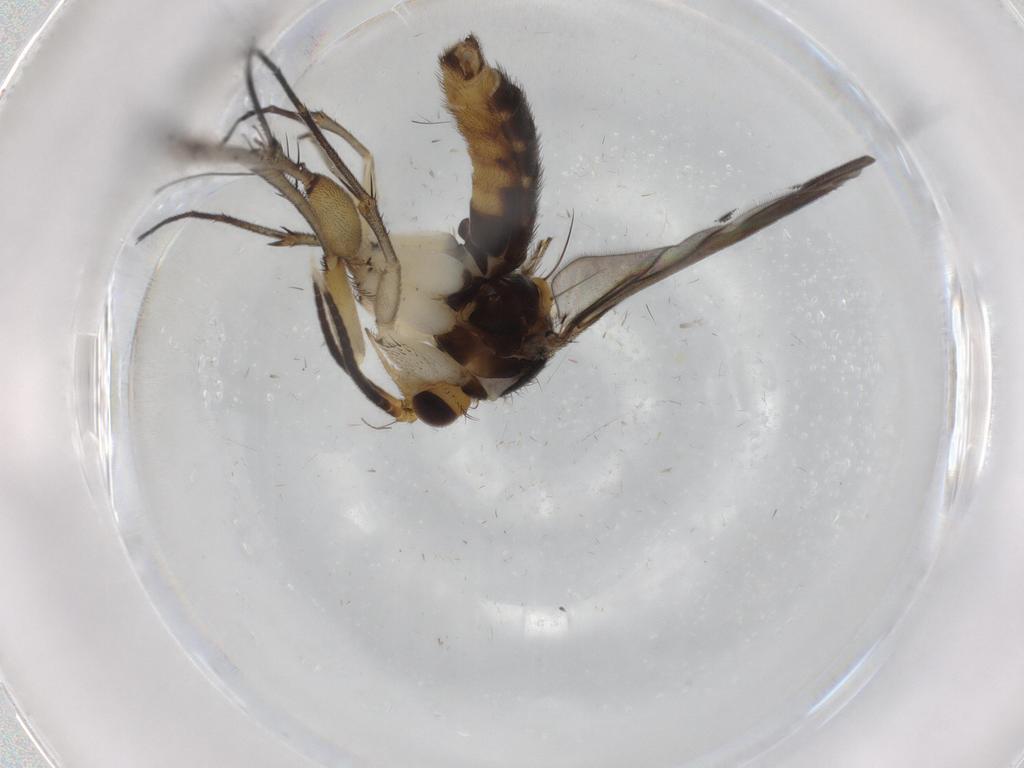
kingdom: Animalia
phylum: Arthropoda
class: Insecta
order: Diptera
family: Bibionidae
